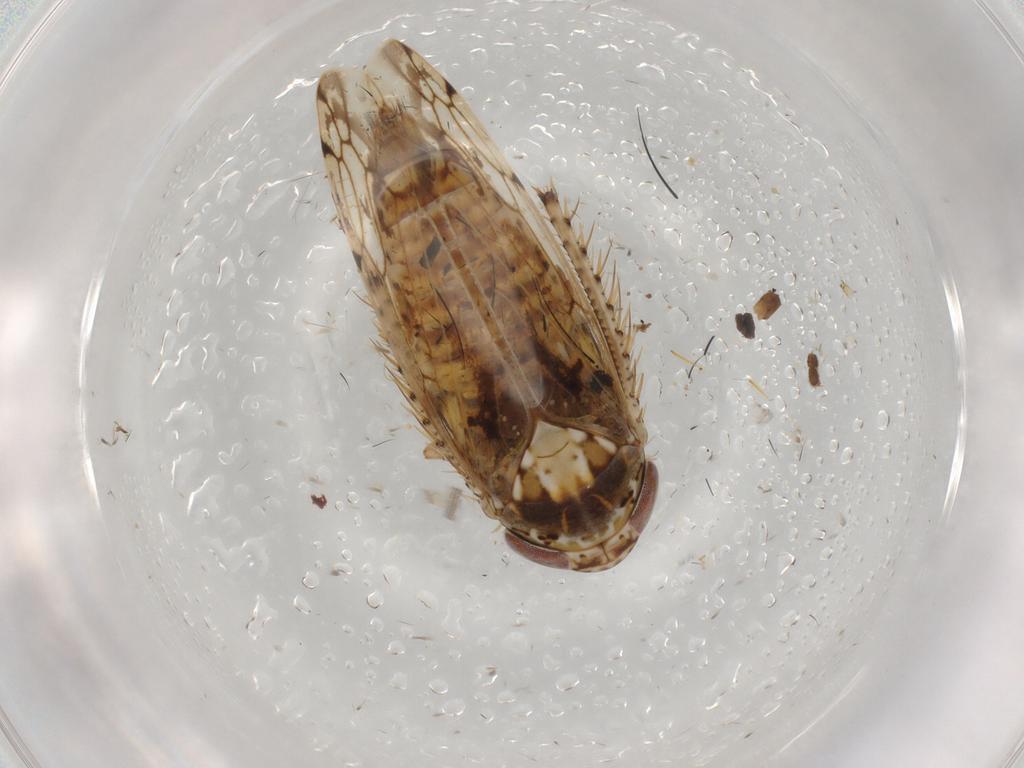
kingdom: Animalia
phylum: Arthropoda
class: Insecta
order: Hemiptera
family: Cicadellidae
